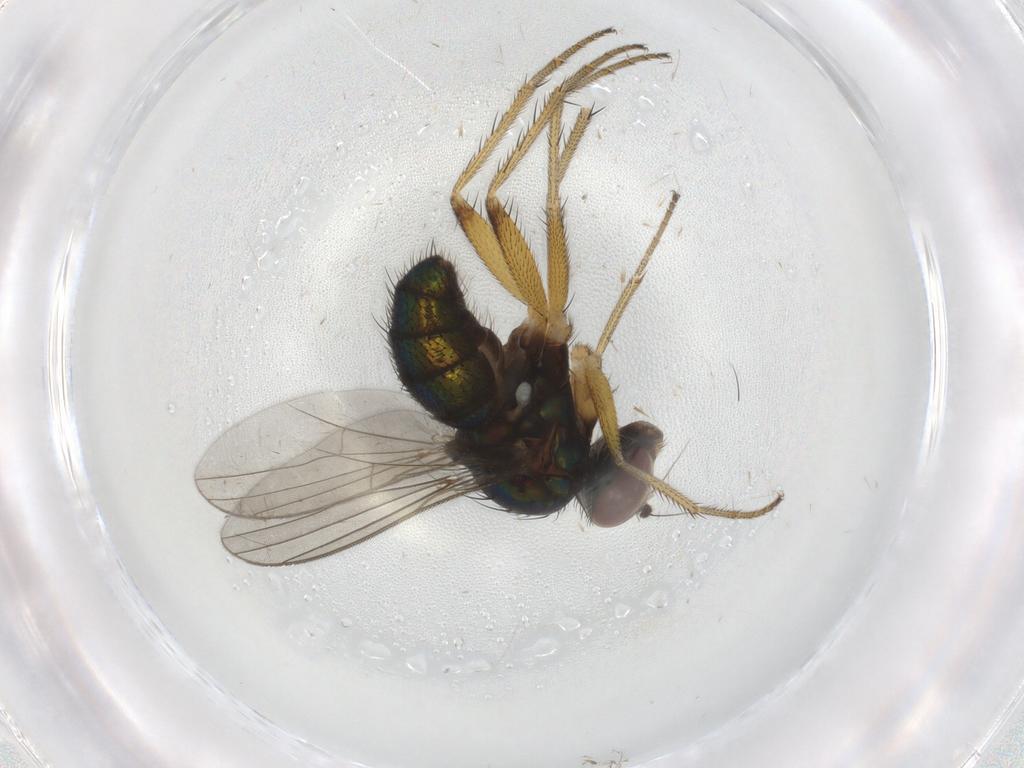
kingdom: Animalia
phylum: Arthropoda
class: Insecta
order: Diptera
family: Dolichopodidae
